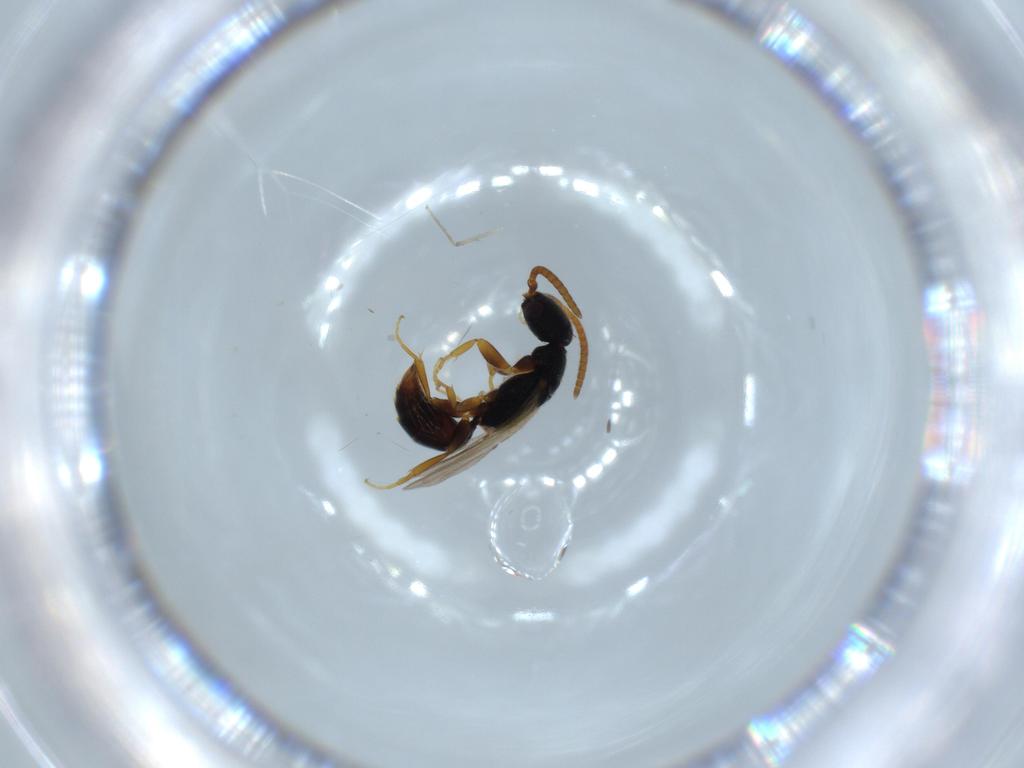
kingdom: Animalia
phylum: Arthropoda
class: Insecta
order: Hymenoptera
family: Bethylidae
